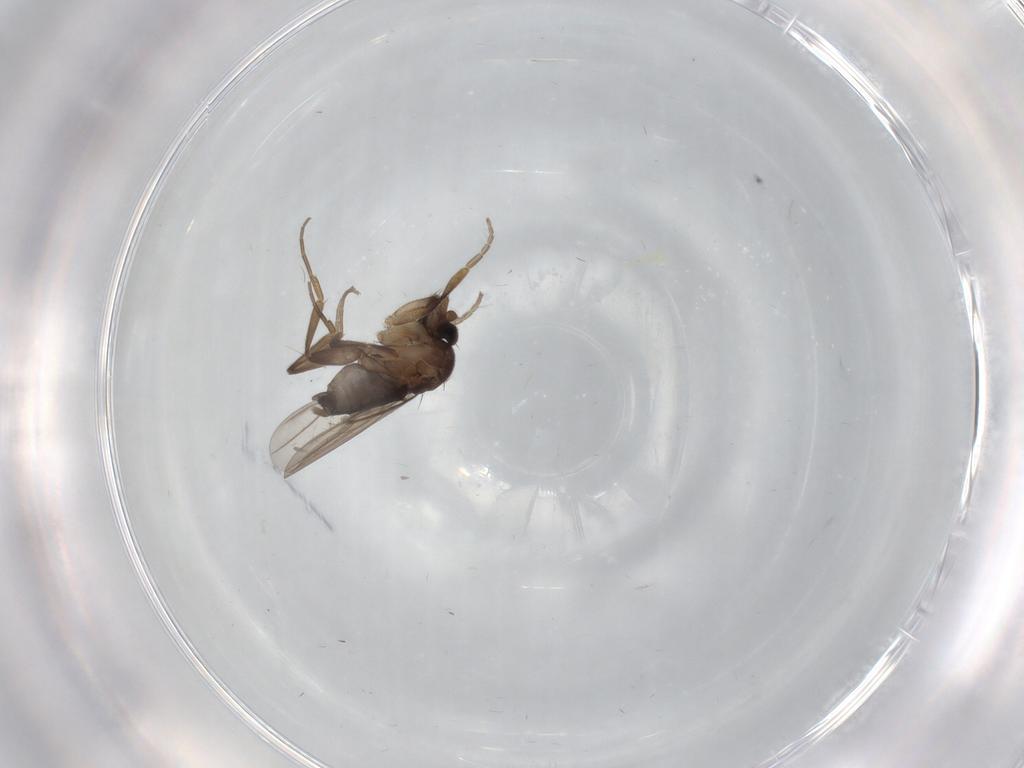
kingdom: Animalia
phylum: Arthropoda
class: Insecta
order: Diptera
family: Phoridae
